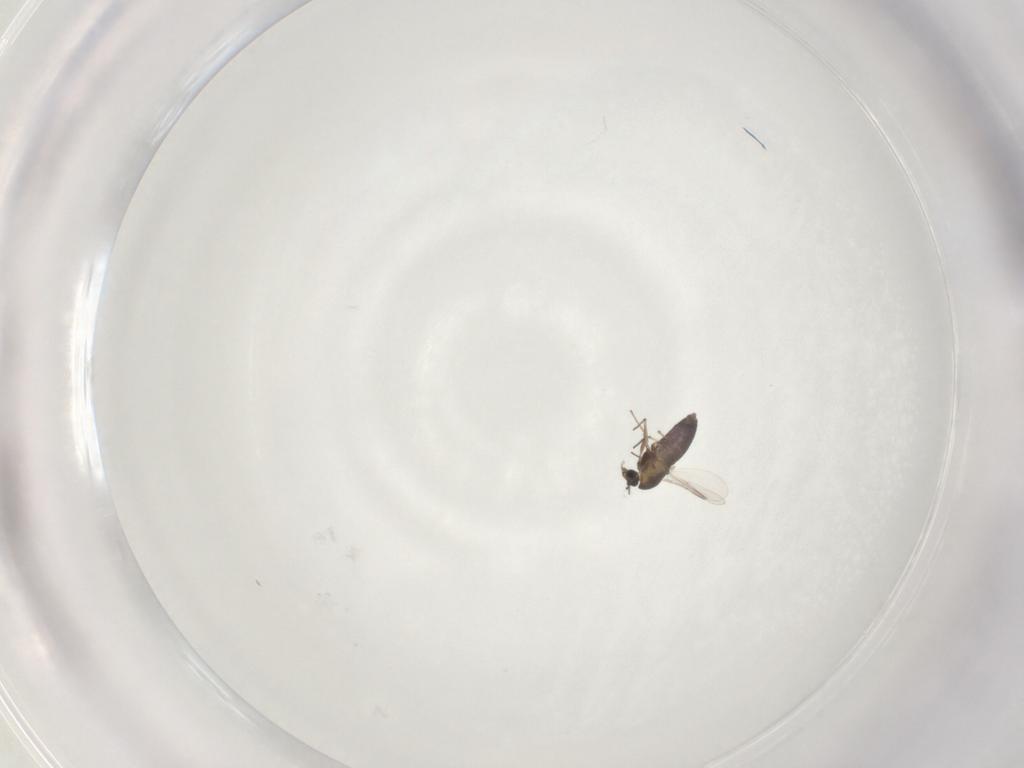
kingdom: Animalia
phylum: Arthropoda
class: Insecta
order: Diptera
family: Chironomidae
